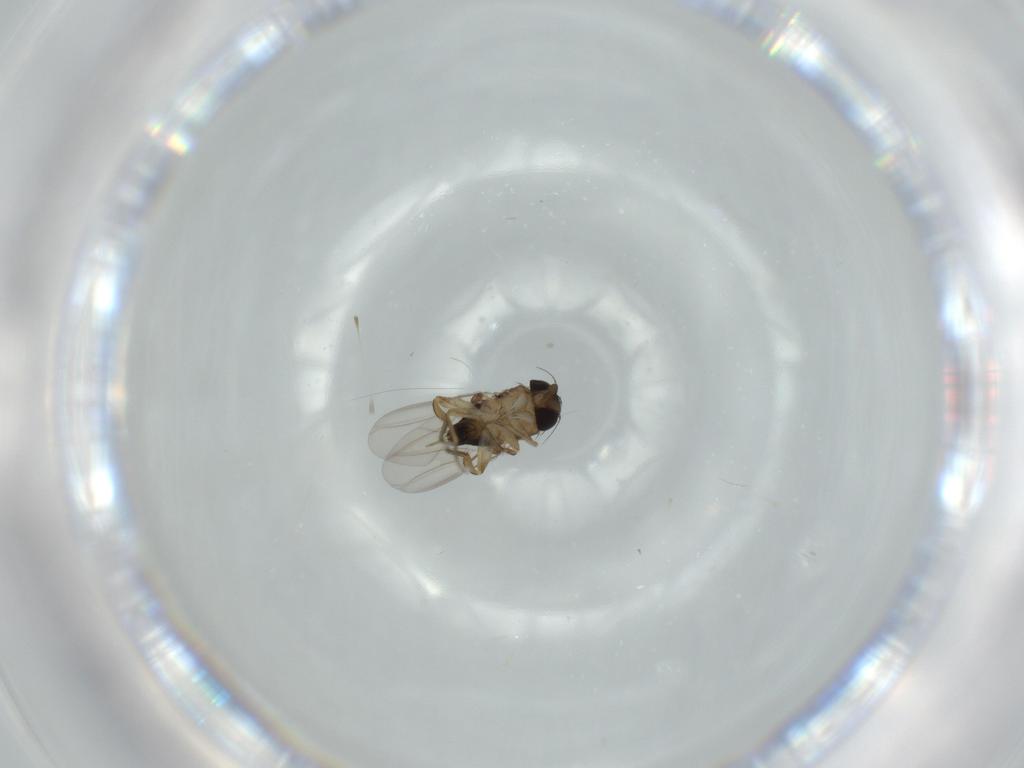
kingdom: Animalia
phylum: Arthropoda
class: Insecta
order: Diptera
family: Phoridae
